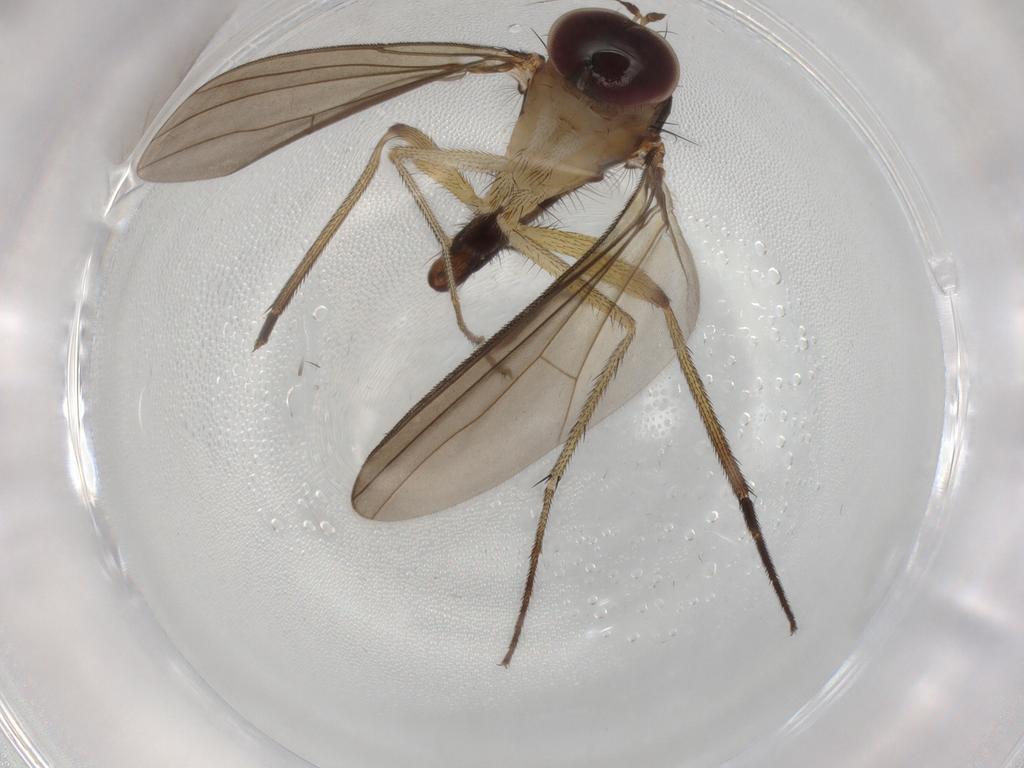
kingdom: Animalia
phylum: Arthropoda
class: Insecta
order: Diptera
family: Dolichopodidae
